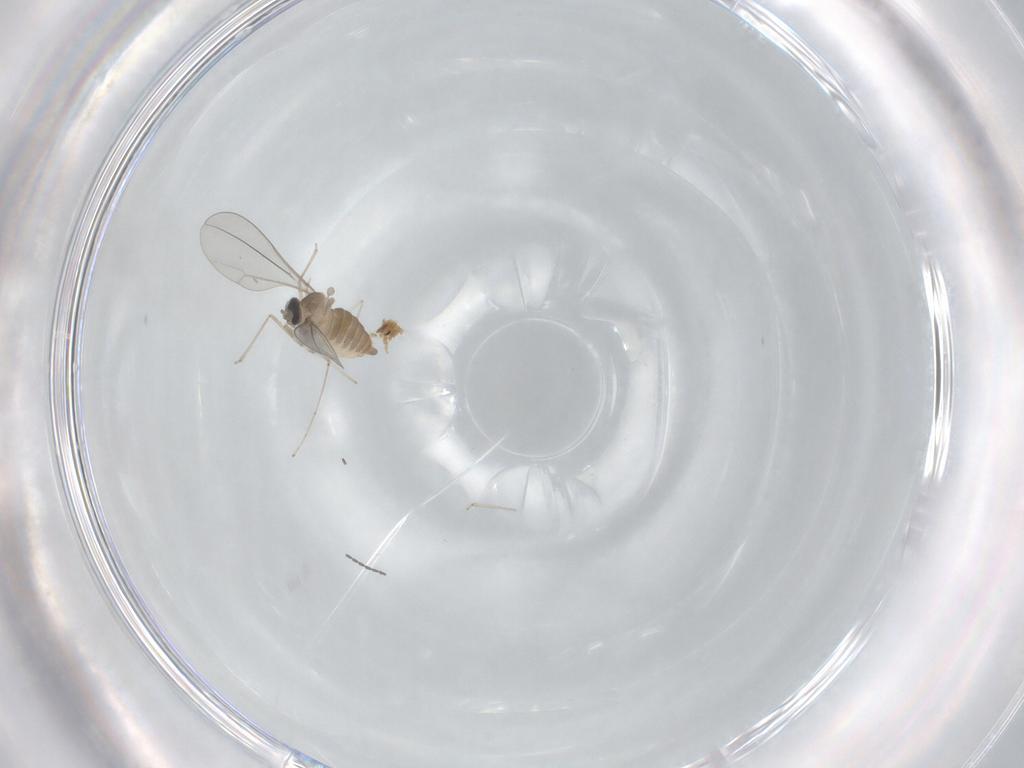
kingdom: Animalia
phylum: Arthropoda
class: Insecta
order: Diptera
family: Cecidomyiidae
